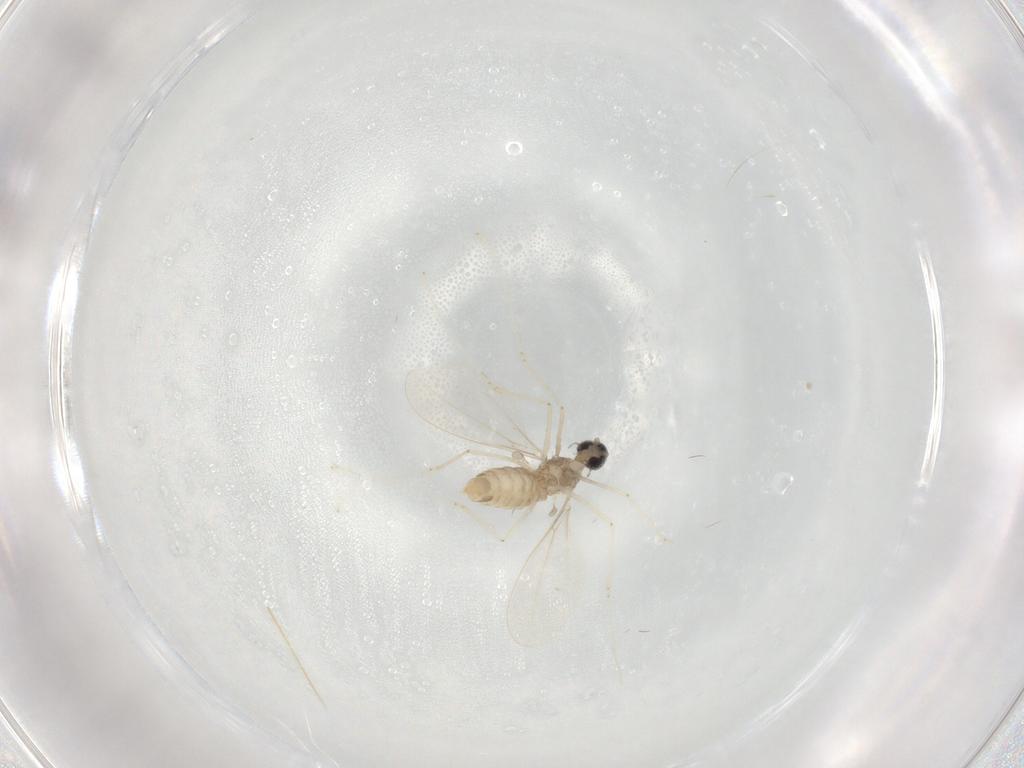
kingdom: Animalia
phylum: Arthropoda
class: Insecta
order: Diptera
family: Cecidomyiidae
